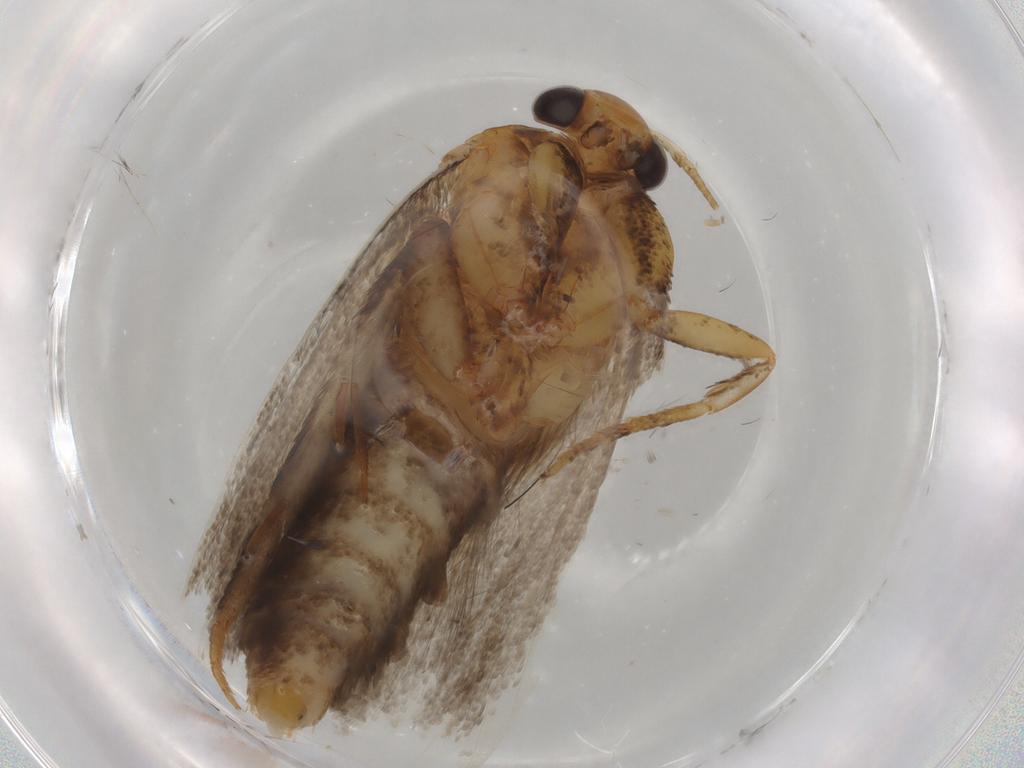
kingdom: Animalia
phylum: Arthropoda
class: Insecta
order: Lepidoptera
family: Oecophoridae
